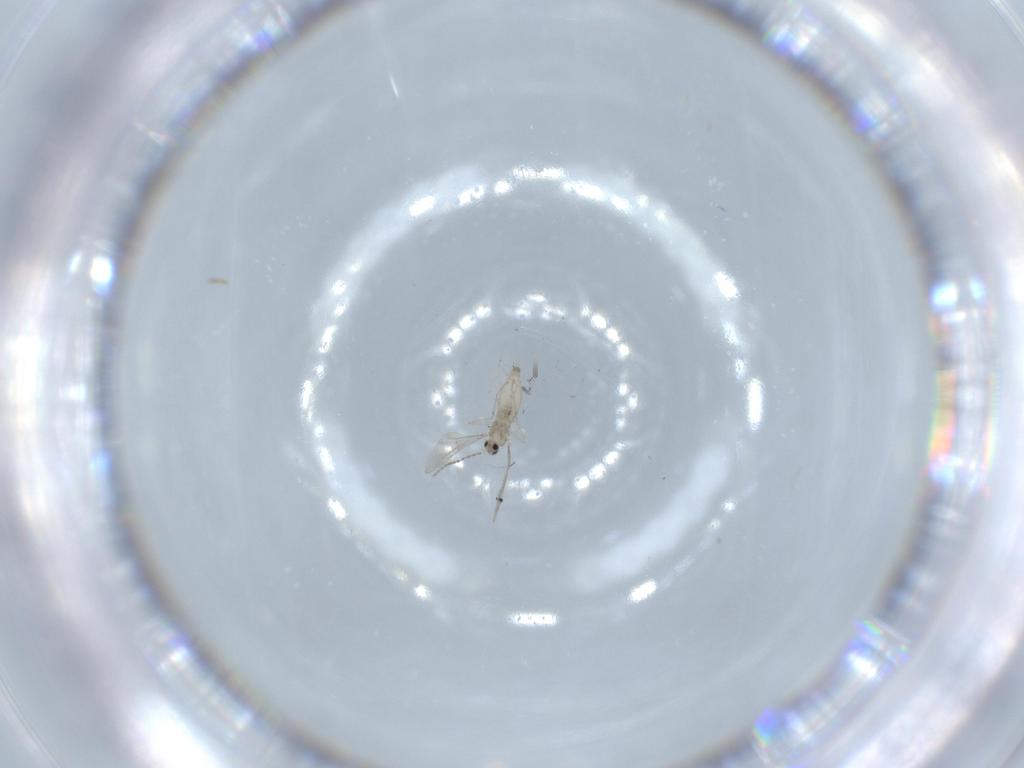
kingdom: Animalia
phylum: Arthropoda
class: Insecta
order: Diptera
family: Cecidomyiidae
